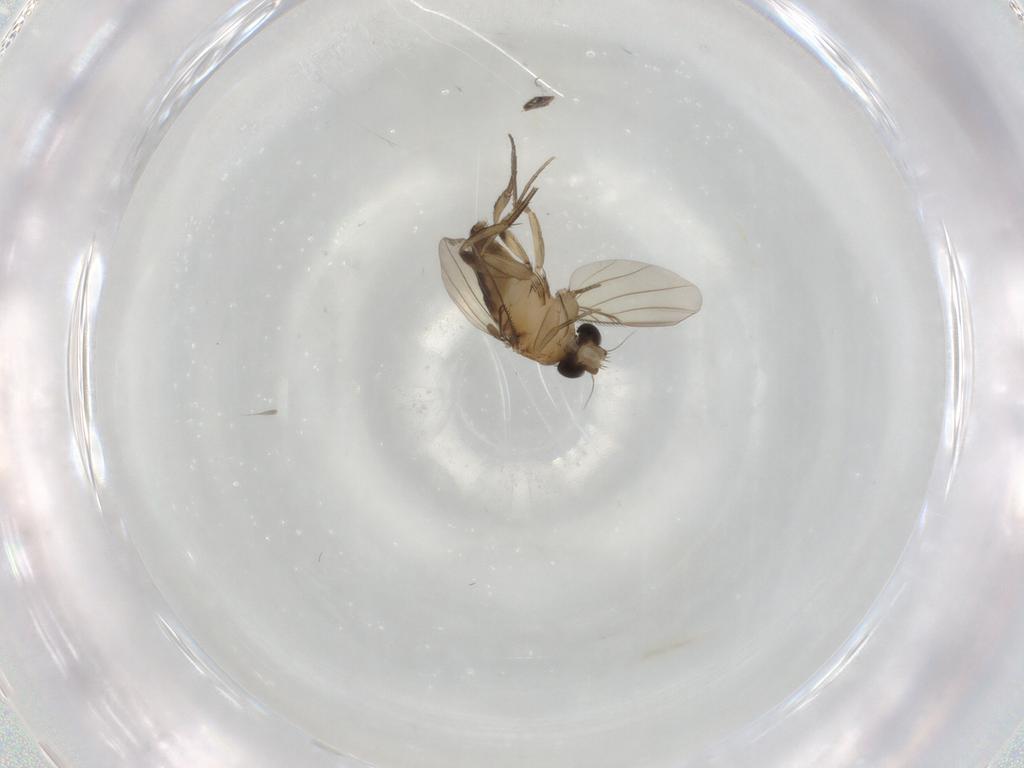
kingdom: Animalia
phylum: Arthropoda
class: Insecta
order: Diptera
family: Phoridae
